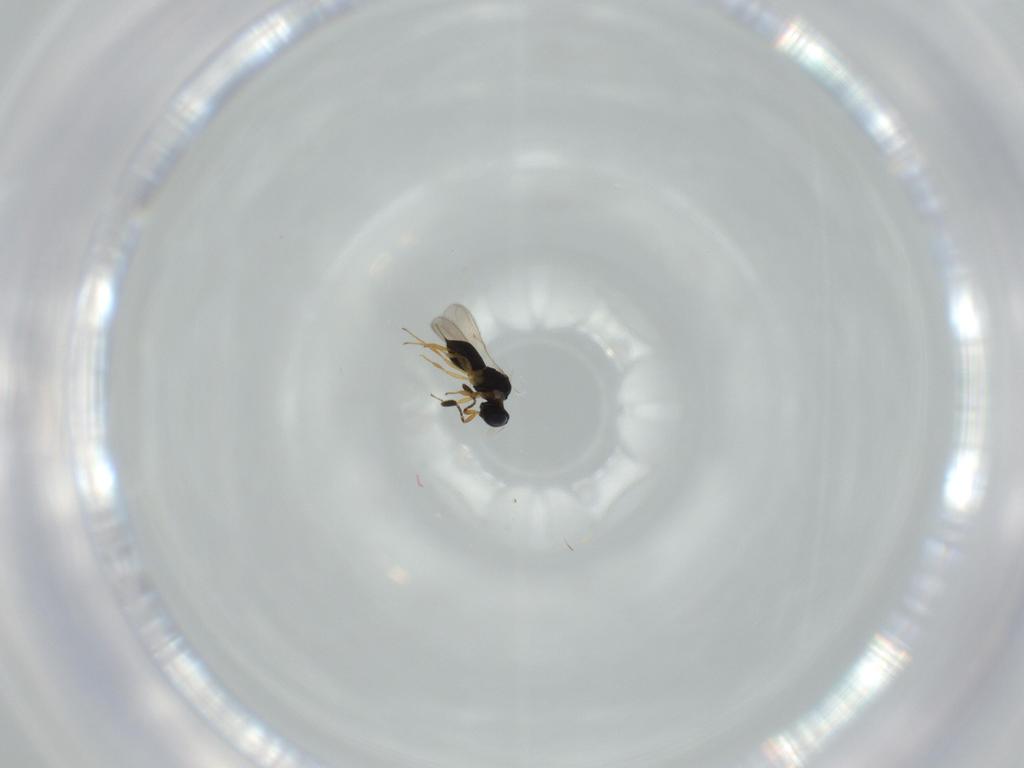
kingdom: Animalia
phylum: Arthropoda
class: Insecta
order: Hymenoptera
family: Scelionidae
